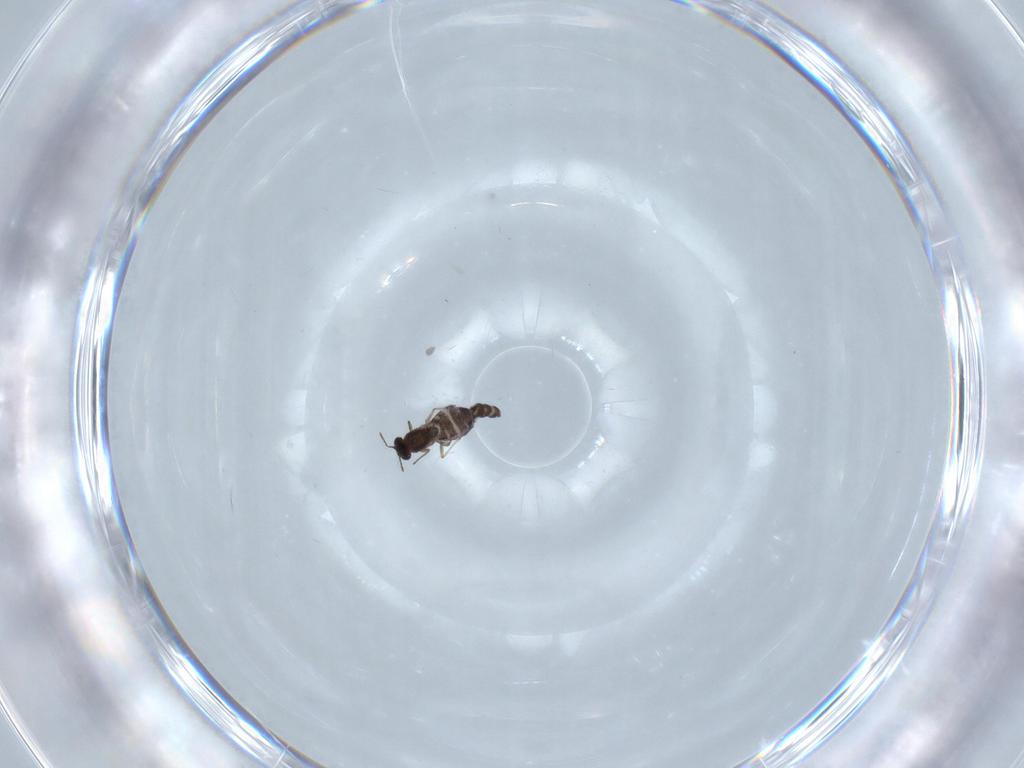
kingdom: Animalia
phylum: Arthropoda
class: Insecta
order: Diptera
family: Chironomidae
